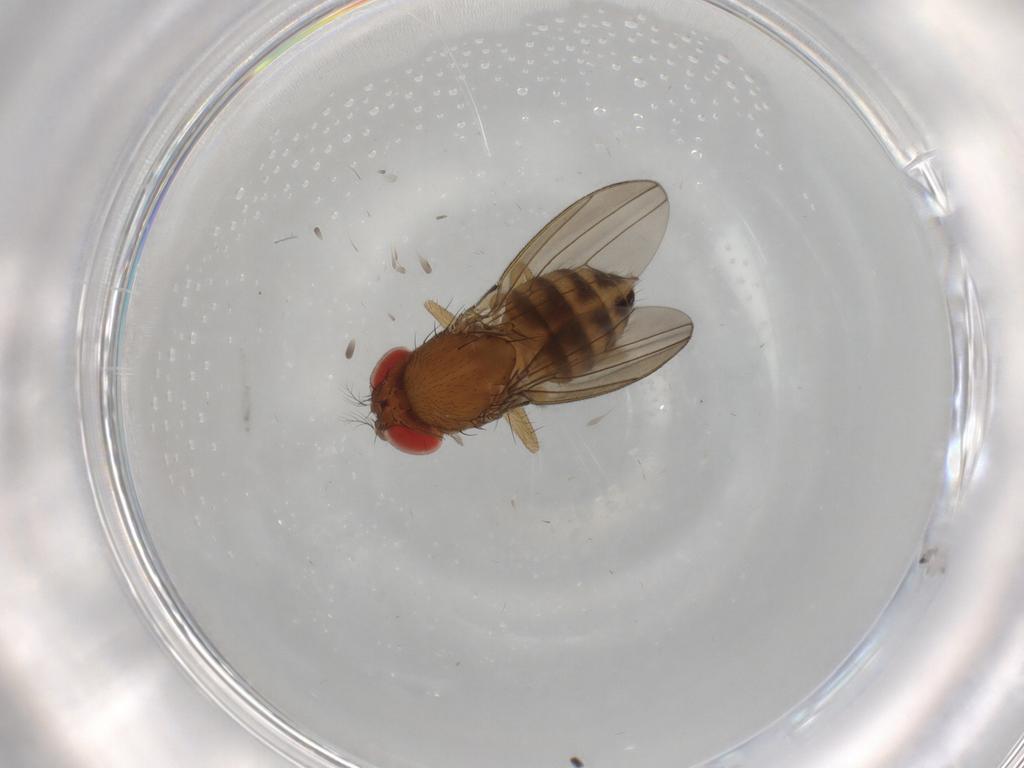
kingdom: Animalia
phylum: Arthropoda
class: Insecta
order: Diptera
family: Drosophilidae
